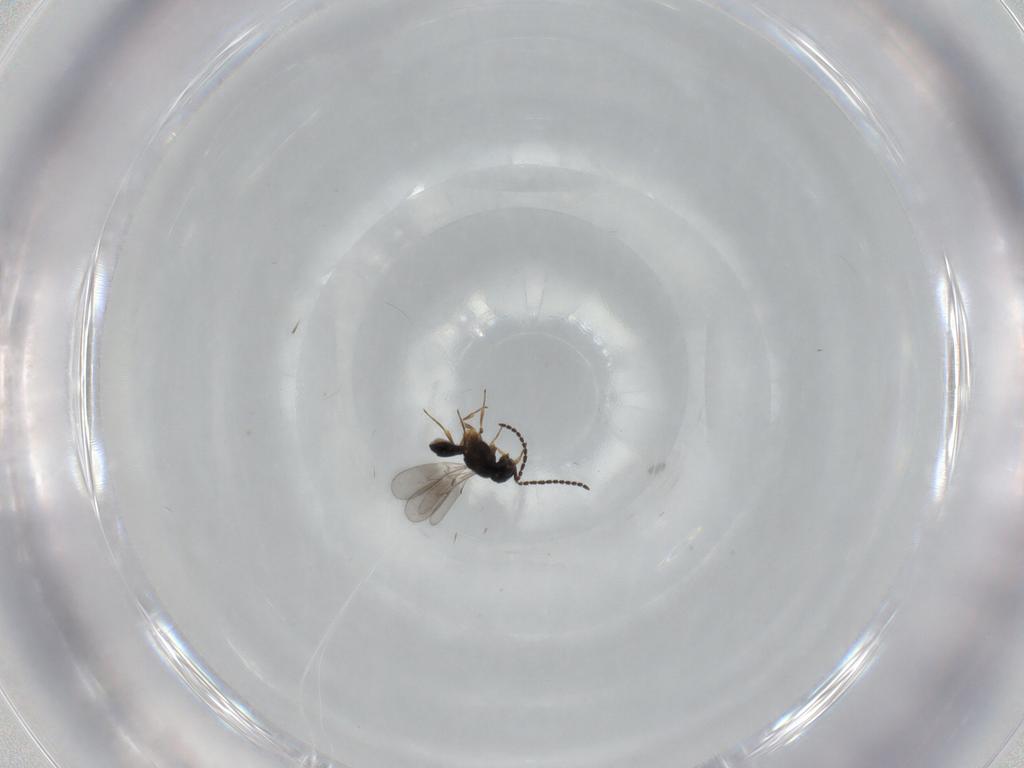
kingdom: Animalia
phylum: Arthropoda
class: Insecta
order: Hymenoptera
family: Scelionidae
